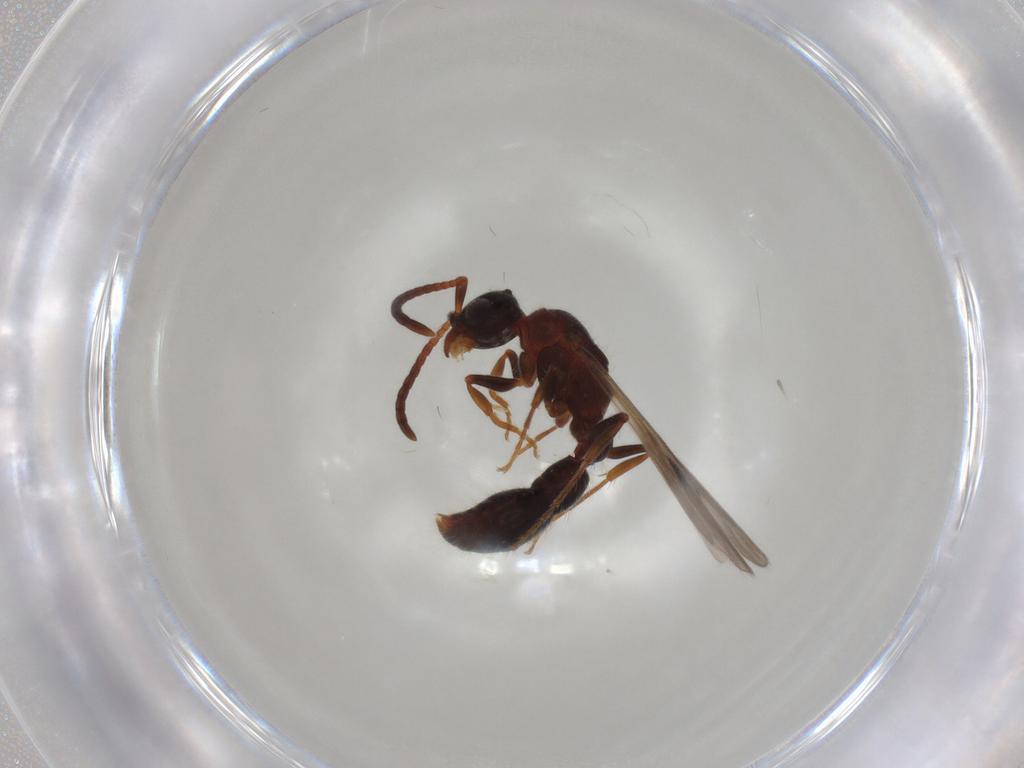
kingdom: Animalia
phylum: Arthropoda
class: Insecta
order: Hymenoptera
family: Formicidae
